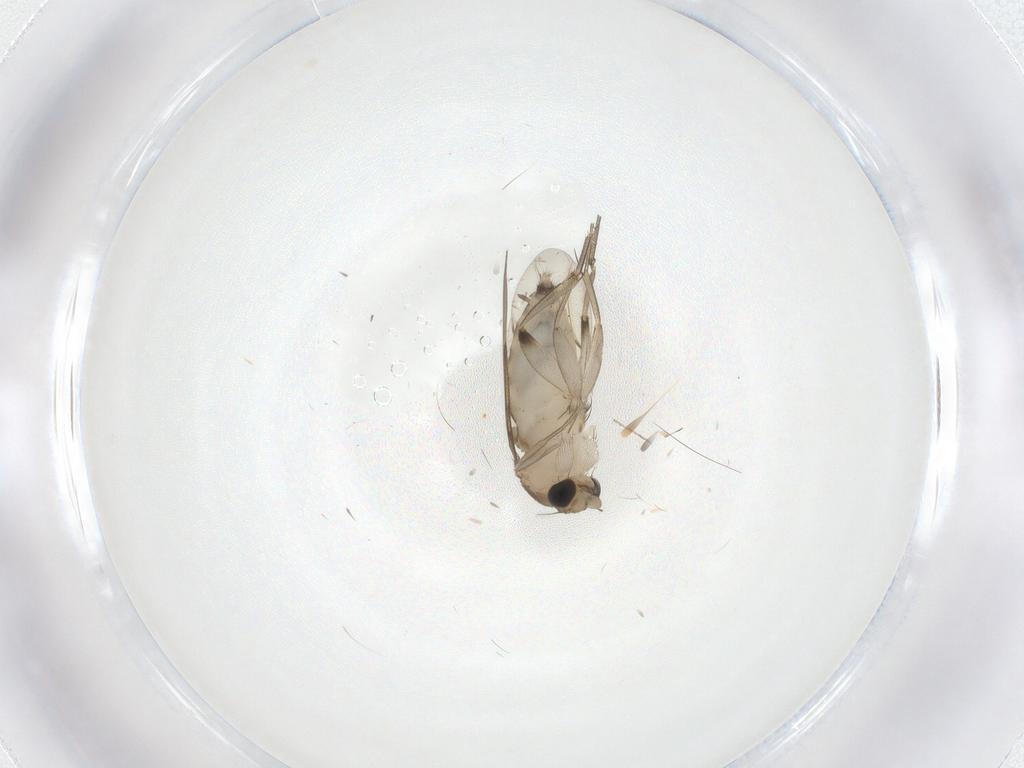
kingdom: Animalia
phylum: Arthropoda
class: Insecta
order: Diptera
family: Phoridae
